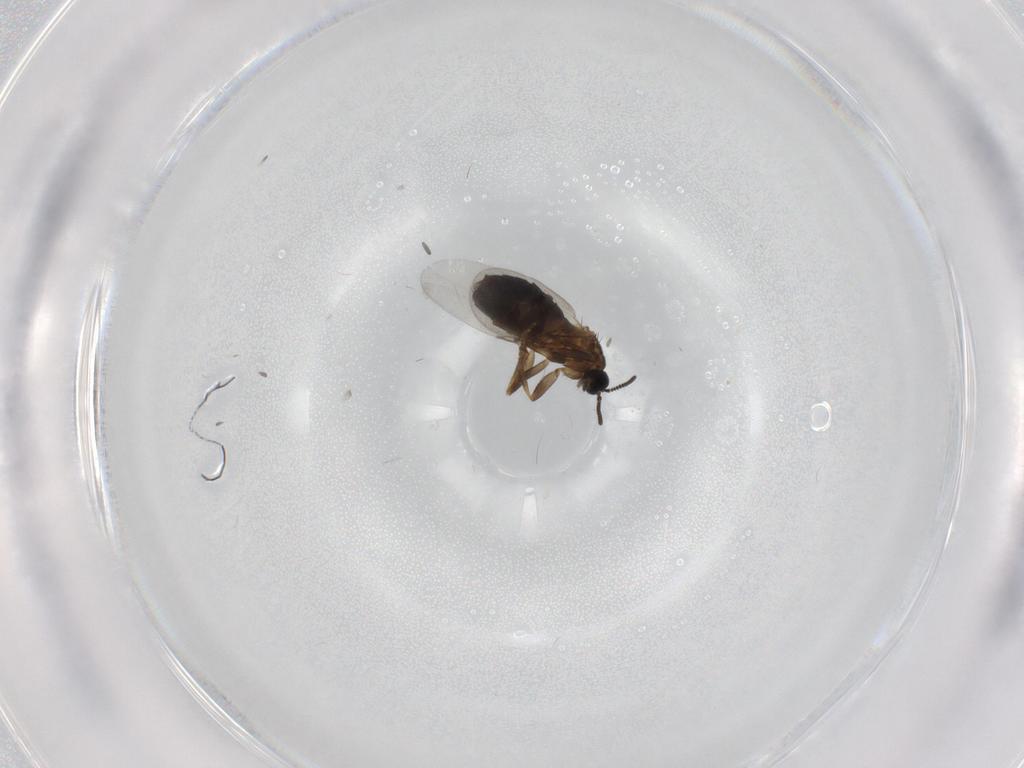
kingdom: Animalia
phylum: Arthropoda
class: Insecta
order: Diptera
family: Scatopsidae
